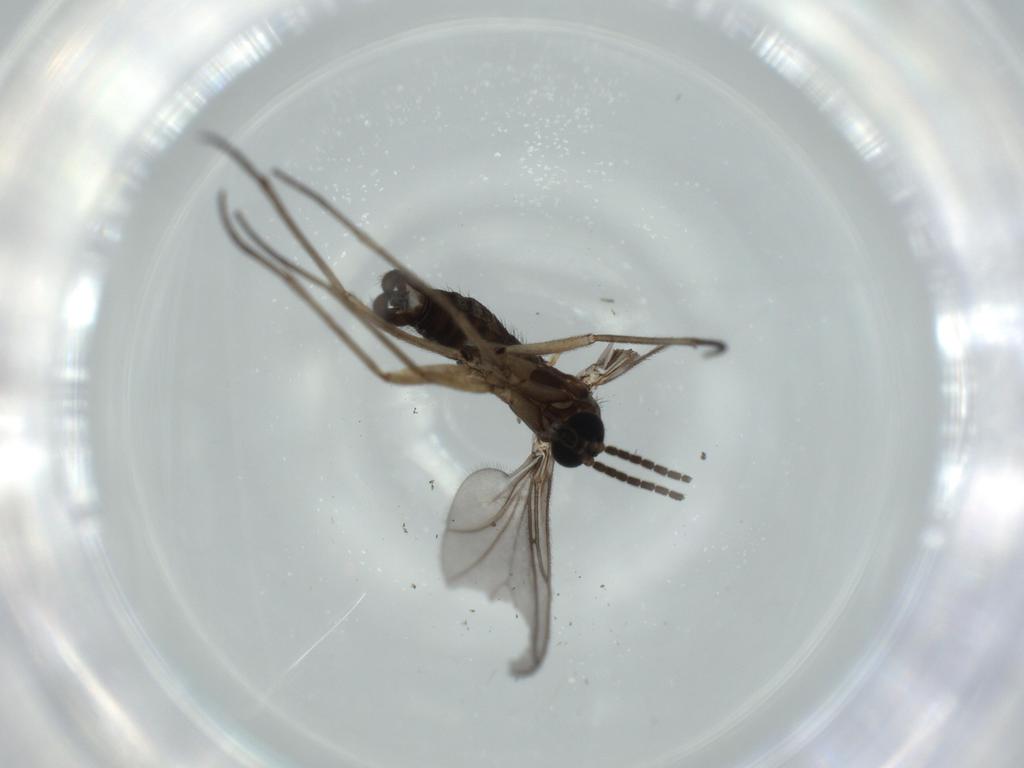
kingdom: Animalia
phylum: Arthropoda
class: Insecta
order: Diptera
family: Sciaridae
